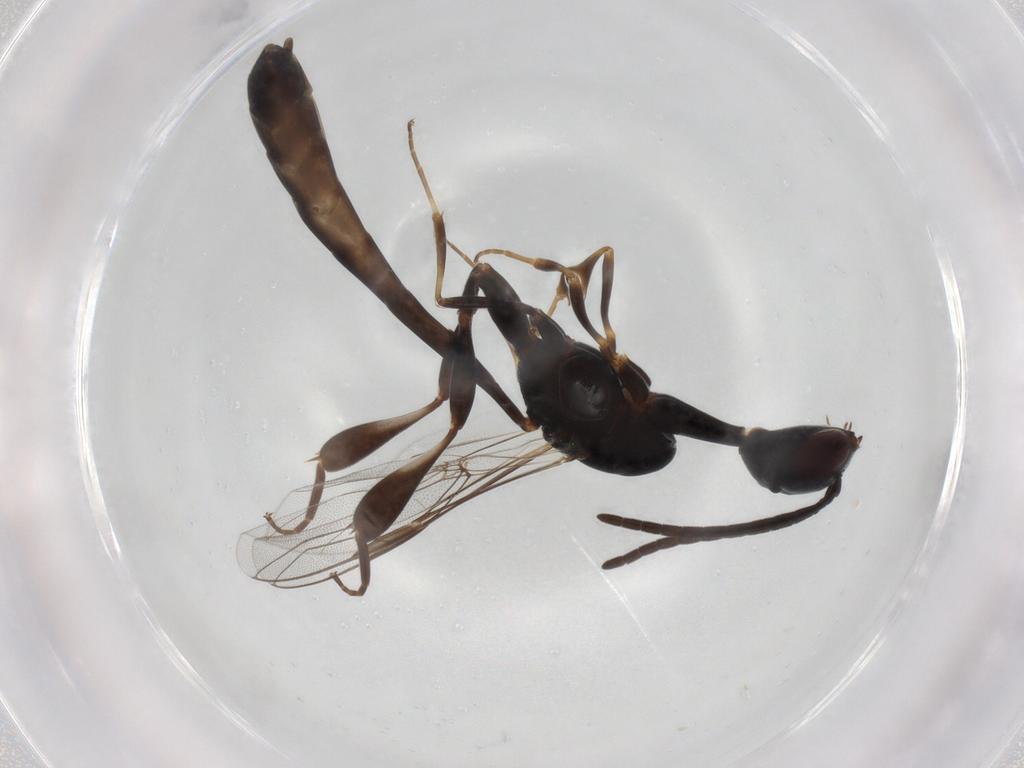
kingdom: Animalia
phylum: Arthropoda
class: Insecta
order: Hymenoptera
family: Gasteruptiidae
